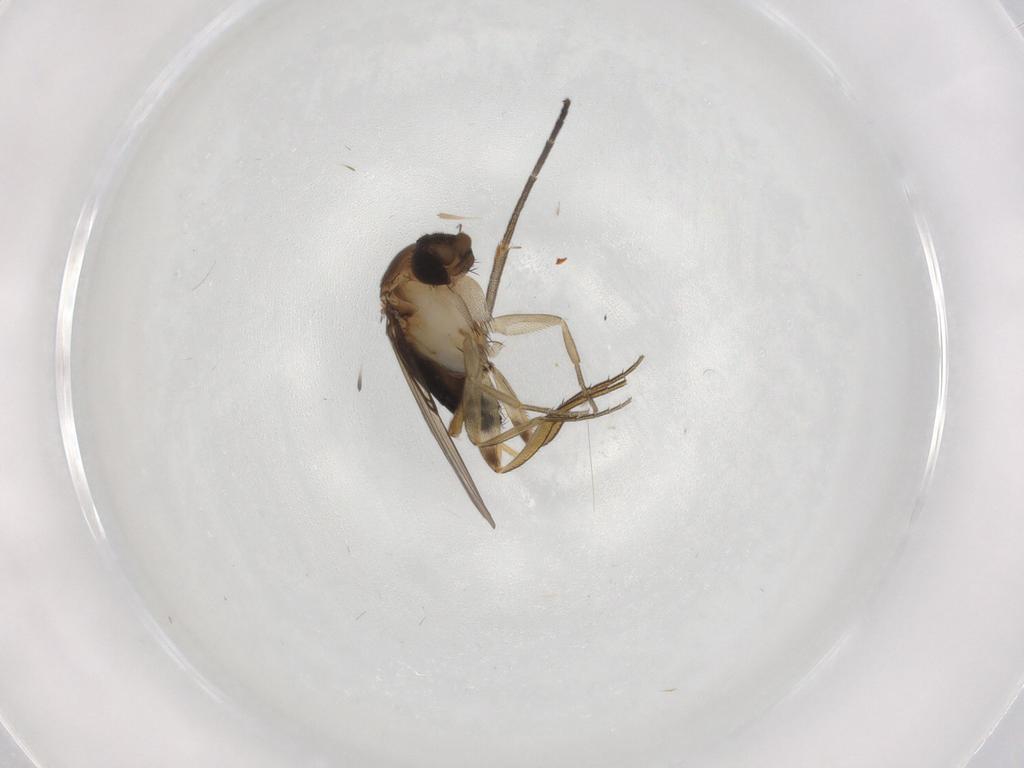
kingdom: Animalia
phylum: Arthropoda
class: Insecta
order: Diptera
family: Phoridae
